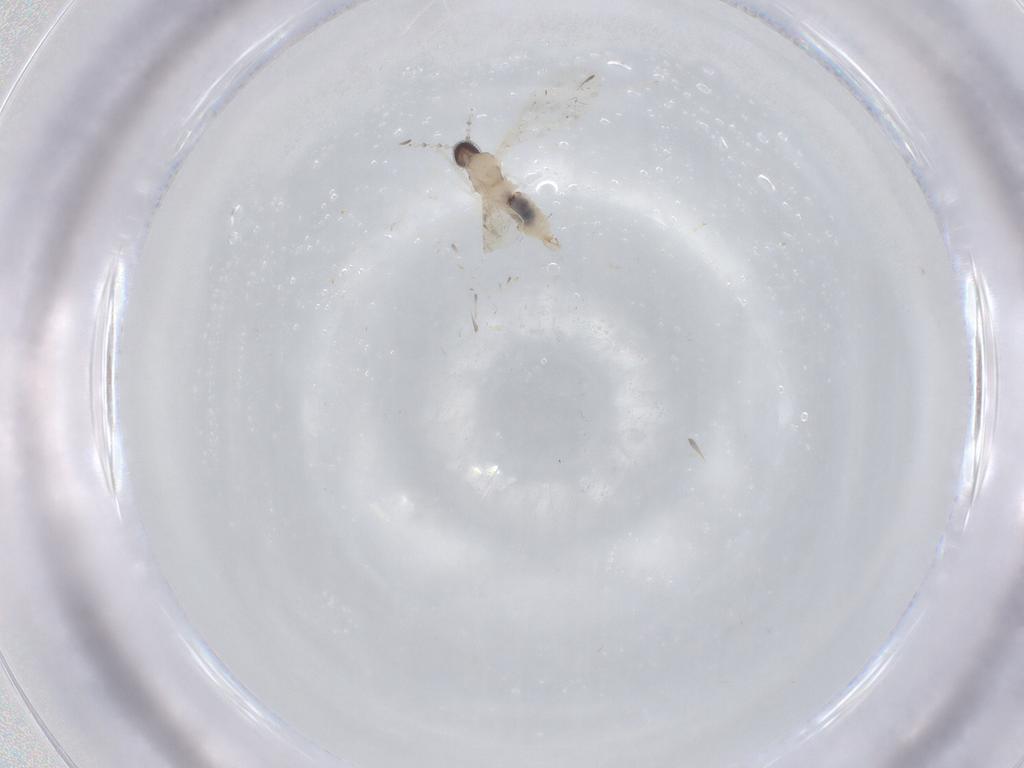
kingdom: Animalia
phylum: Arthropoda
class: Insecta
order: Diptera
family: Cecidomyiidae
